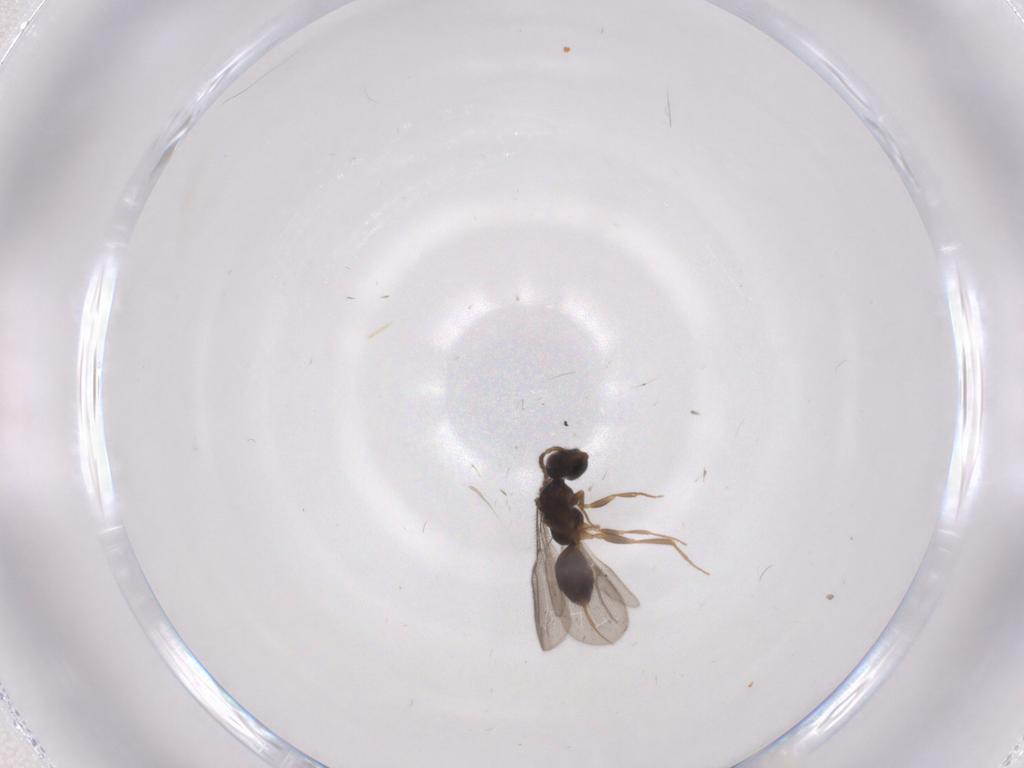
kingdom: Animalia
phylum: Arthropoda
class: Insecta
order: Hymenoptera
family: Bethylidae
